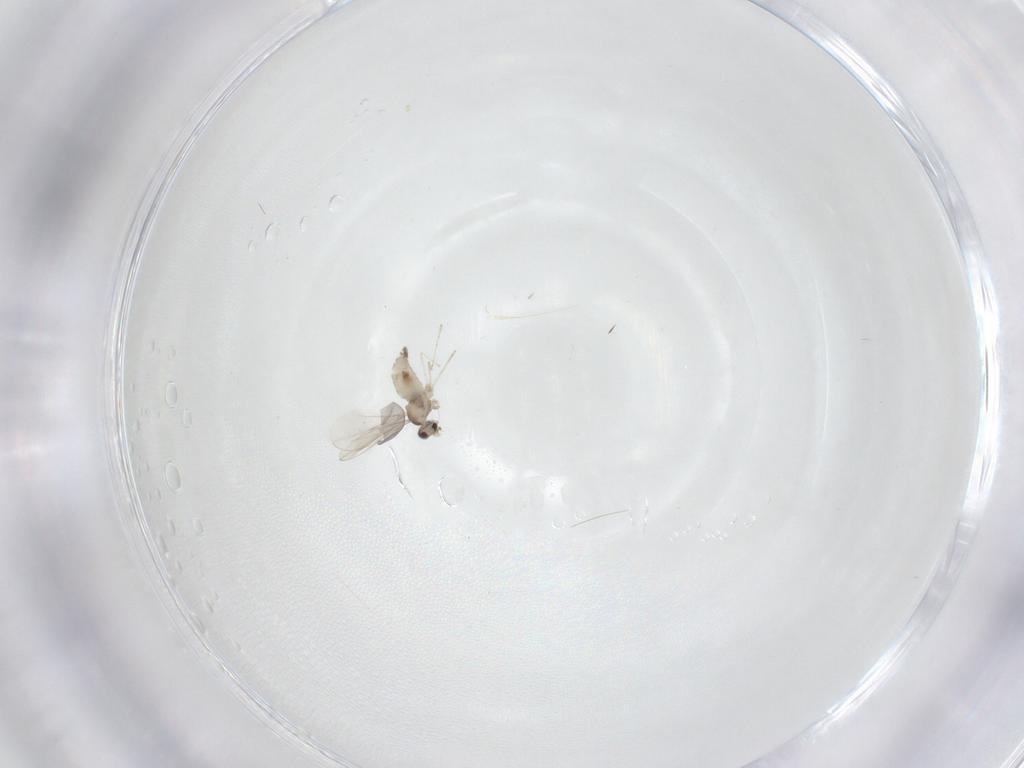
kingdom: Animalia
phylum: Arthropoda
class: Insecta
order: Diptera
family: Cecidomyiidae
